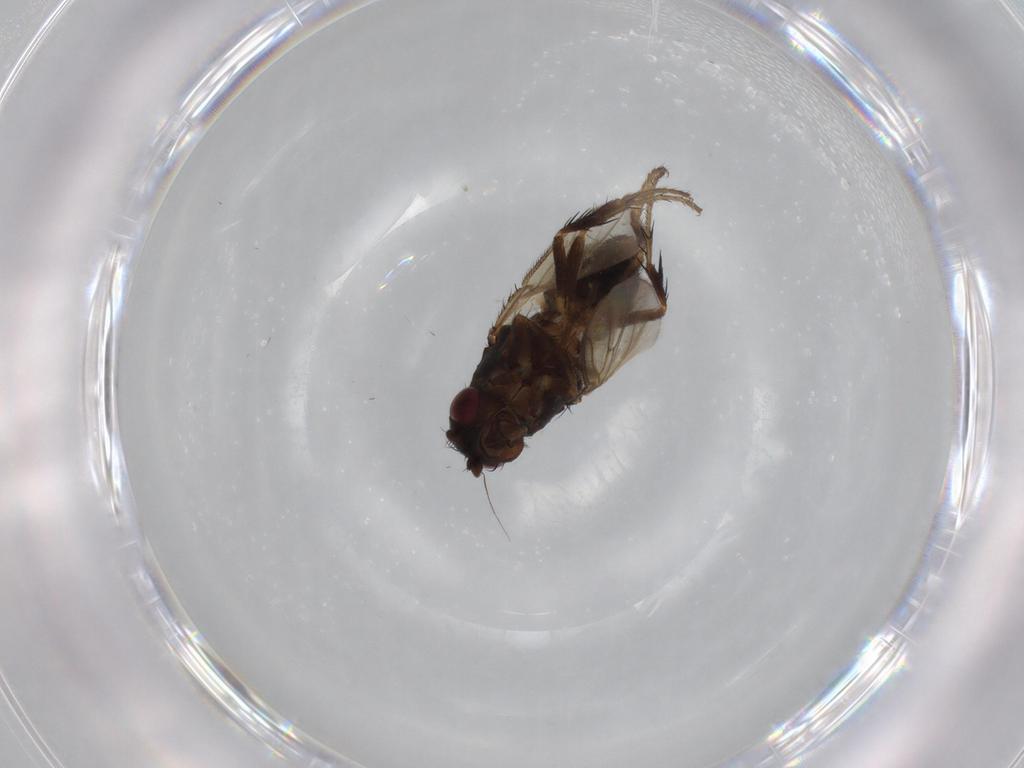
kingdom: Animalia
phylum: Arthropoda
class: Insecta
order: Diptera
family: Sphaeroceridae
